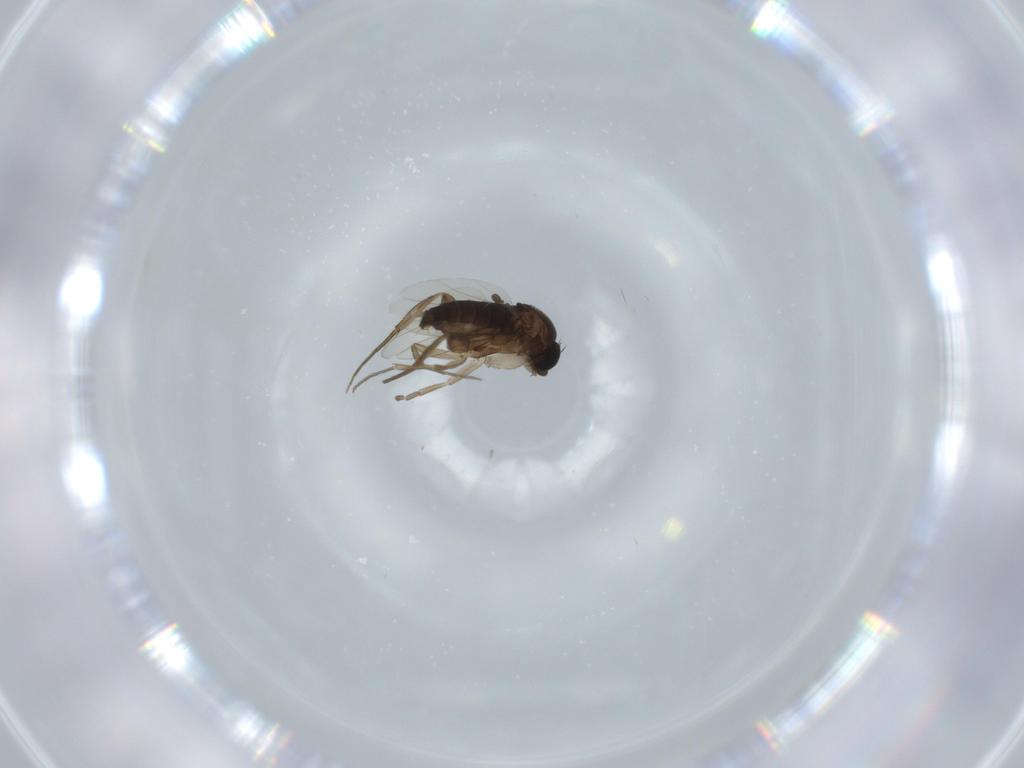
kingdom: Animalia
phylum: Arthropoda
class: Insecta
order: Diptera
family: Phoridae
